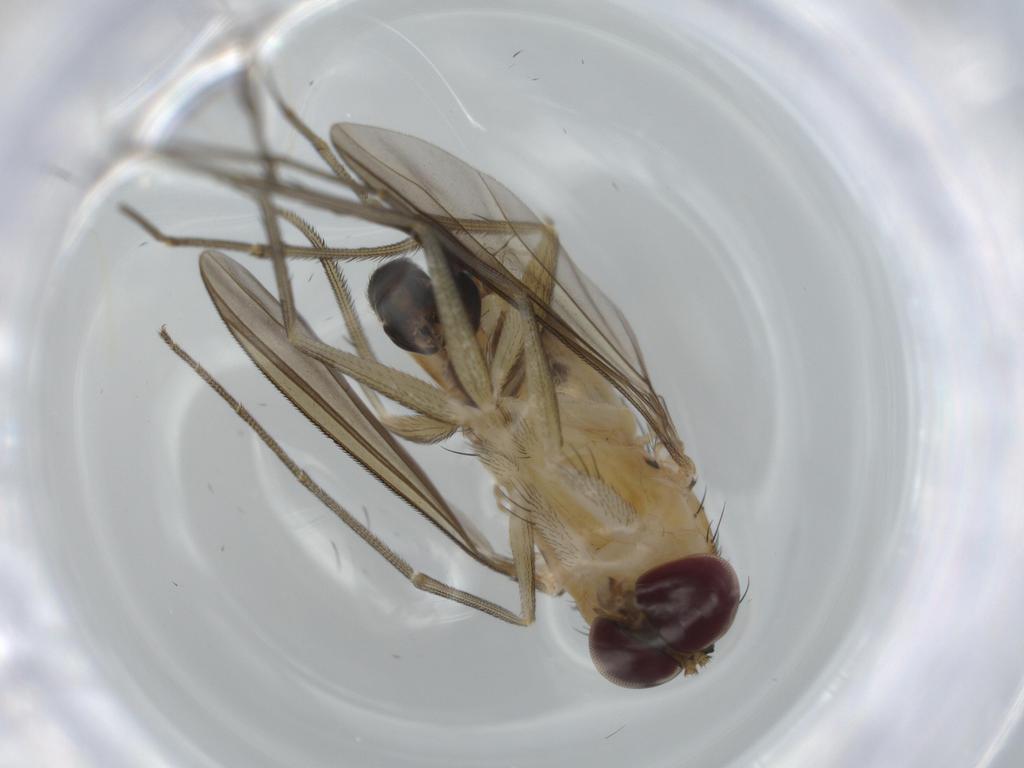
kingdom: Animalia
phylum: Arthropoda
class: Insecta
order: Diptera
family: Dolichopodidae
